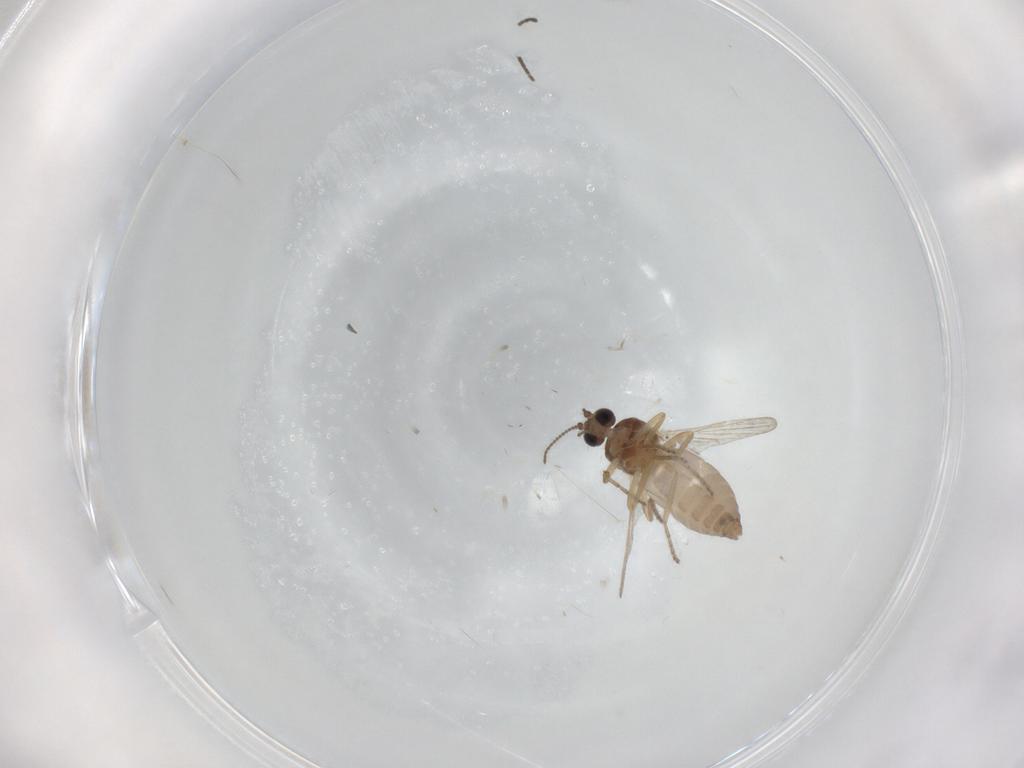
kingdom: Animalia
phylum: Arthropoda
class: Insecta
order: Diptera
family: Ceratopogonidae
